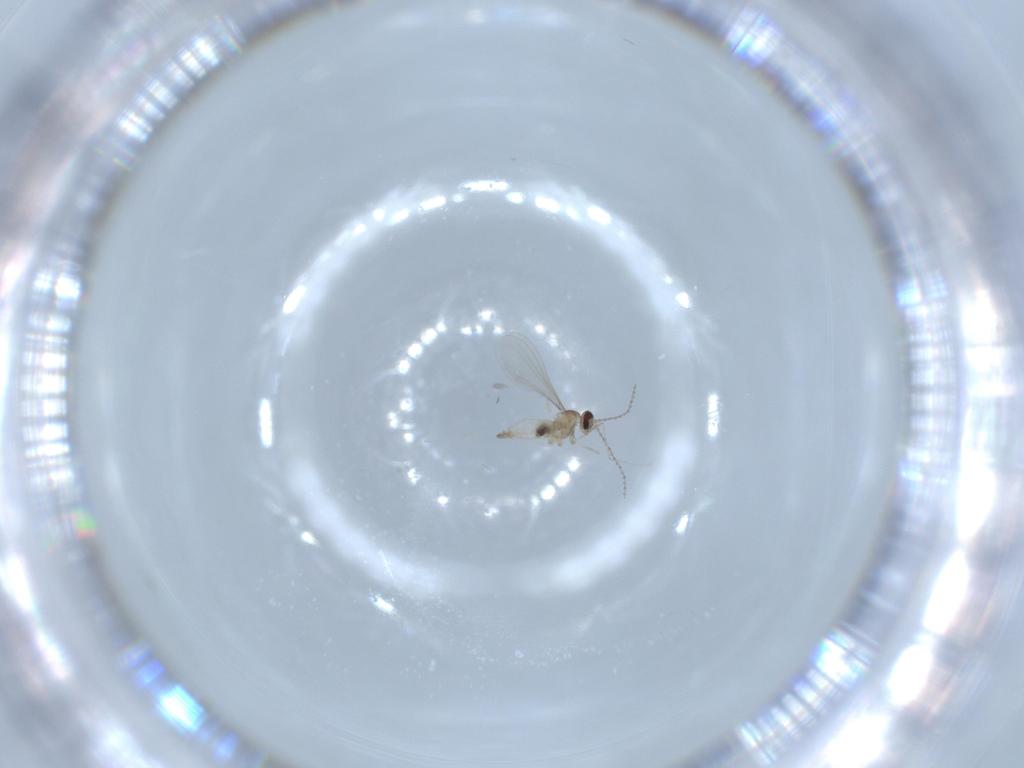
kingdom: Animalia
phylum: Arthropoda
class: Insecta
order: Diptera
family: Cecidomyiidae
